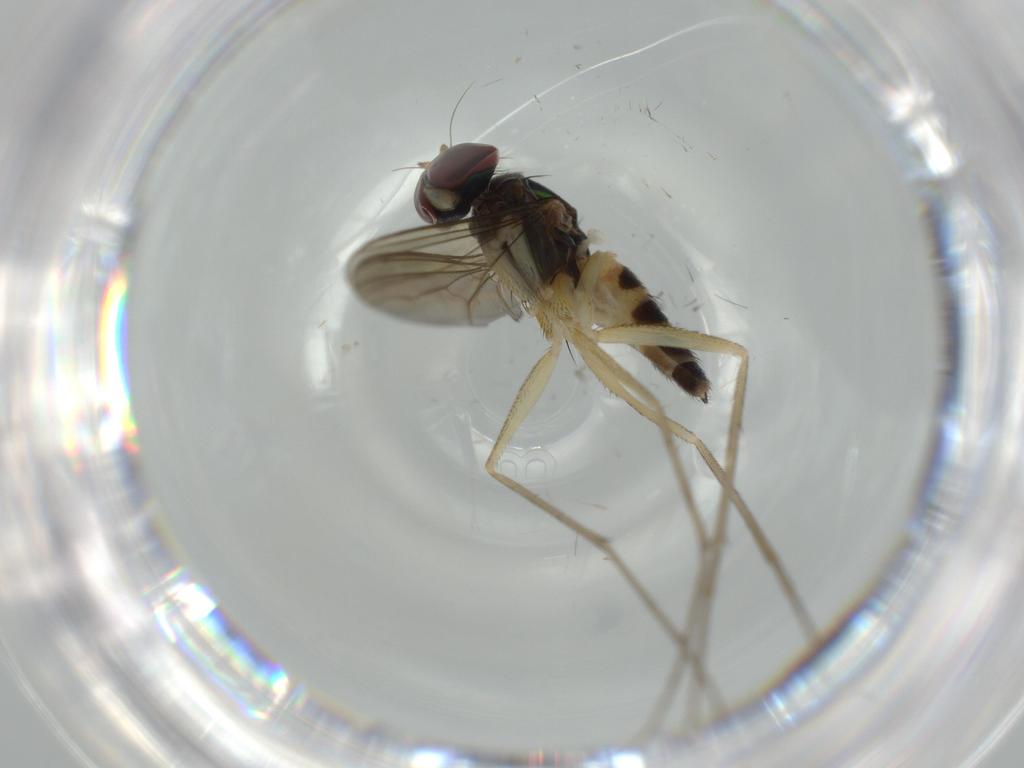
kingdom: Animalia
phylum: Arthropoda
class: Insecta
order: Diptera
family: Dolichopodidae
